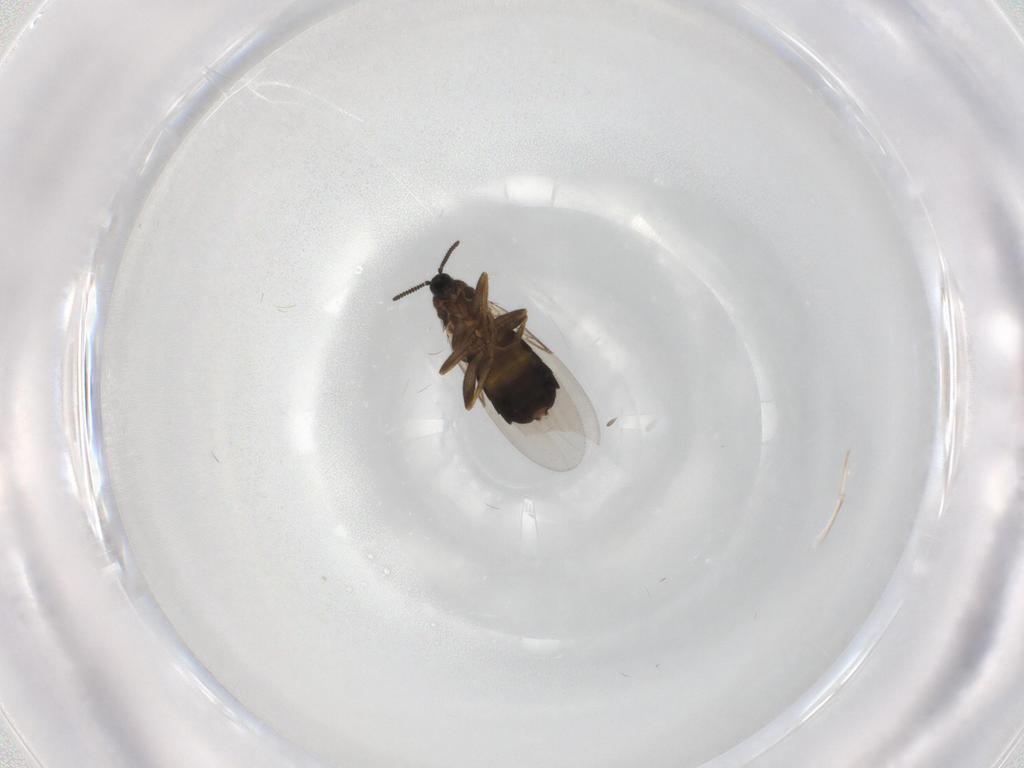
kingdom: Animalia
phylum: Arthropoda
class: Insecta
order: Diptera
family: Scatopsidae
